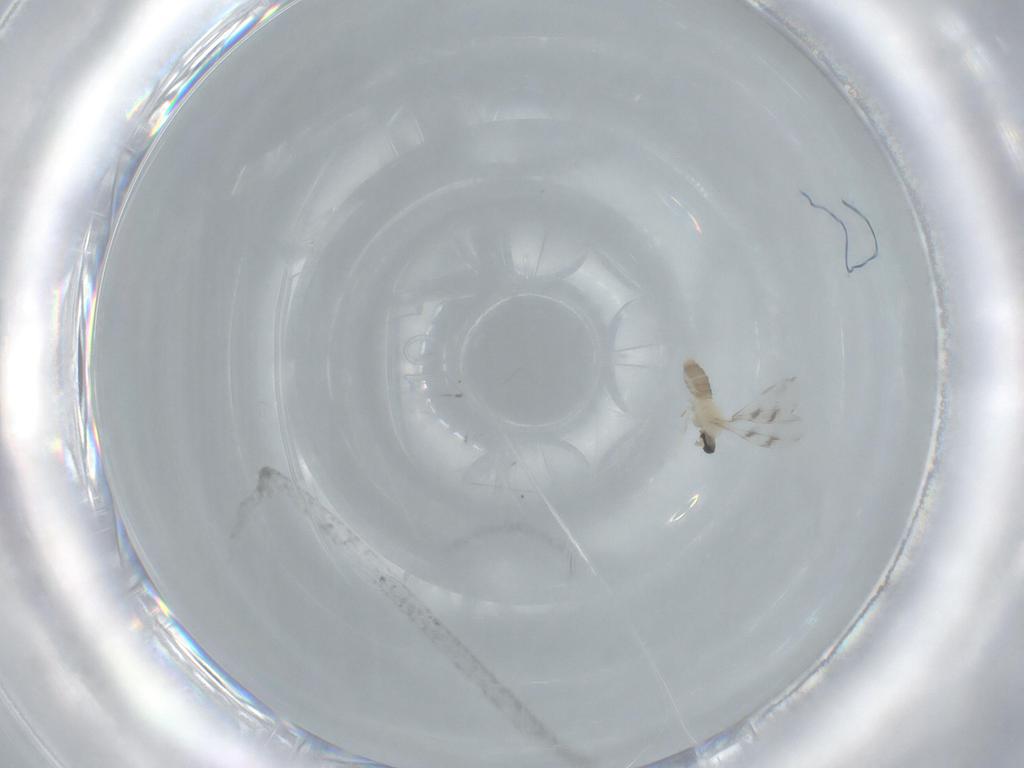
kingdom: Animalia
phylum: Arthropoda
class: Insecta
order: Diptera
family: Cecidomyiidae
